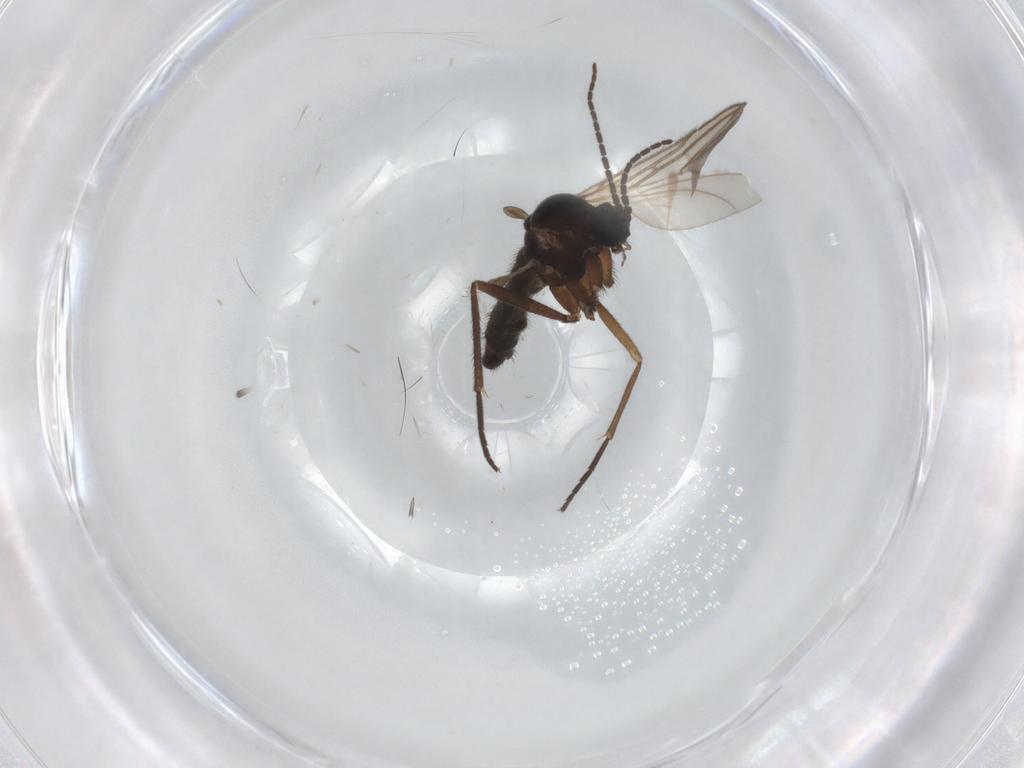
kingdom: Animalia
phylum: Arthropoda
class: Insecta
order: Diptera
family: Sciaridae
